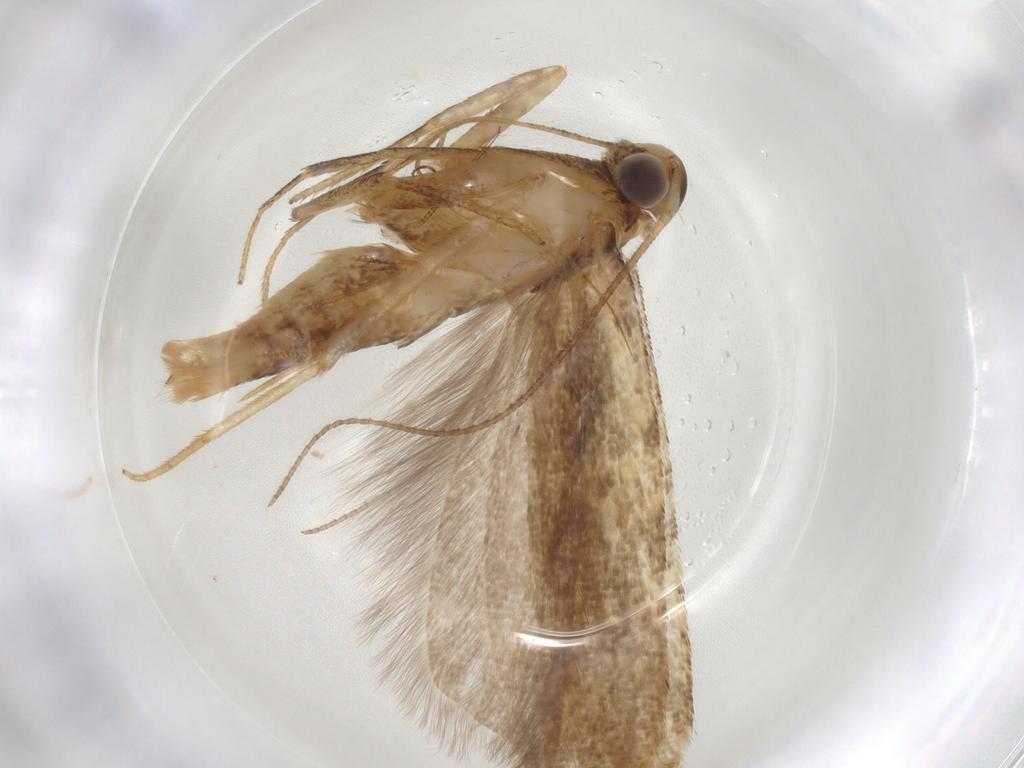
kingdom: Animalia
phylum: Arthropoda
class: Insecta
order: Lepidoptera
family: Gelechiidae
